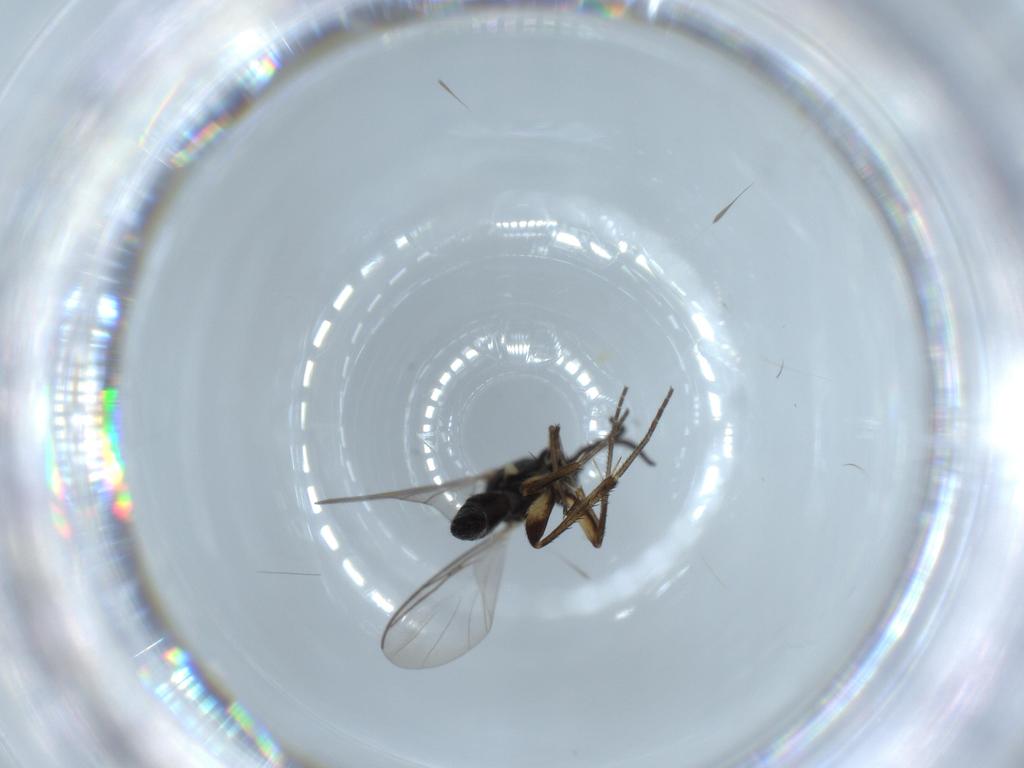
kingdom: Animalia
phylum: Arthropoda
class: Insecta
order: Diptera
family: Mycetophilidae
